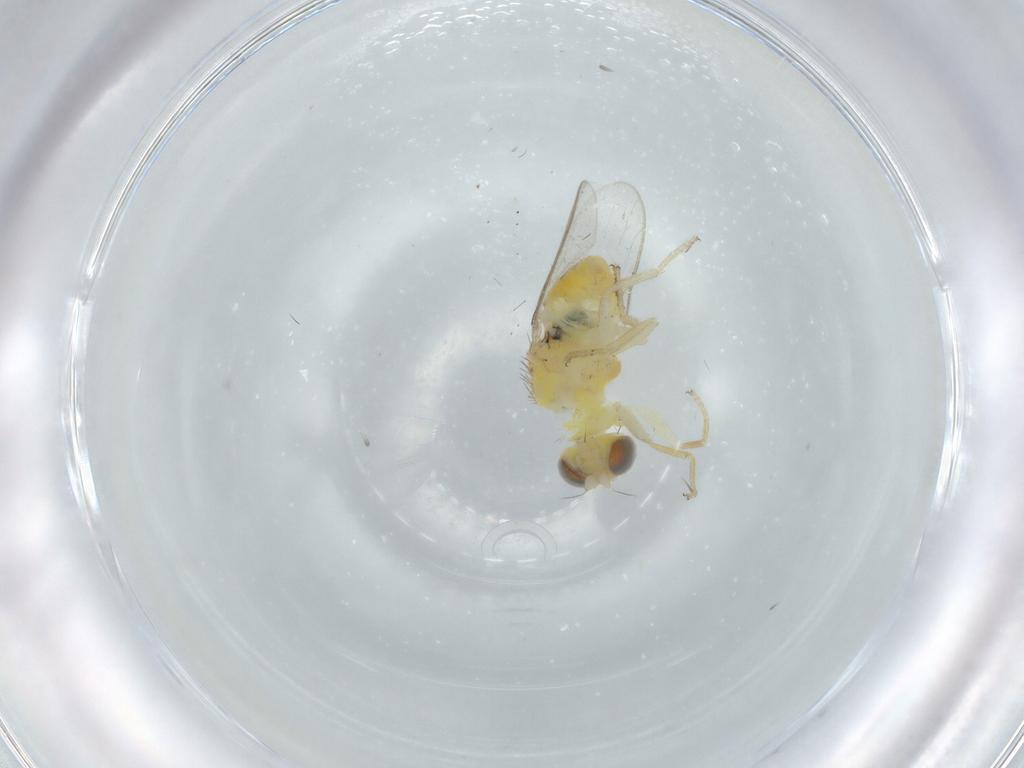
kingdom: Animalia
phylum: Arthropoda
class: Insecta
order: Diptera
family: Chloropidae
